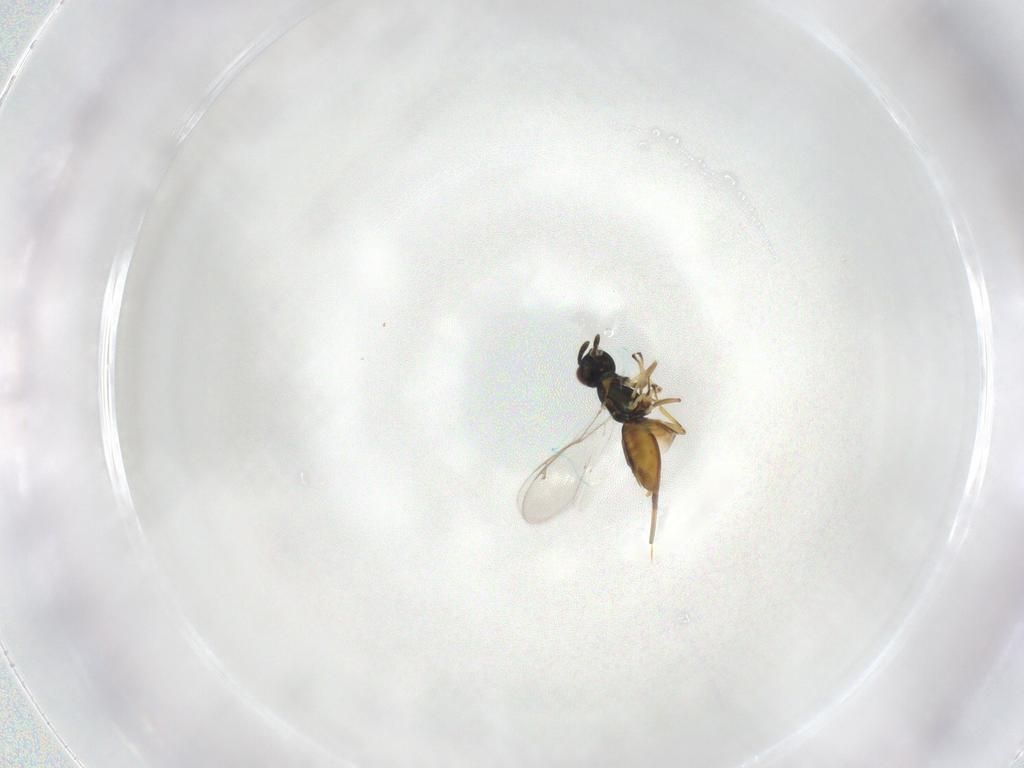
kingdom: Animalia
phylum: Arthropoda
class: Insecta
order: Hymenoptera
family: Eupelmidae
